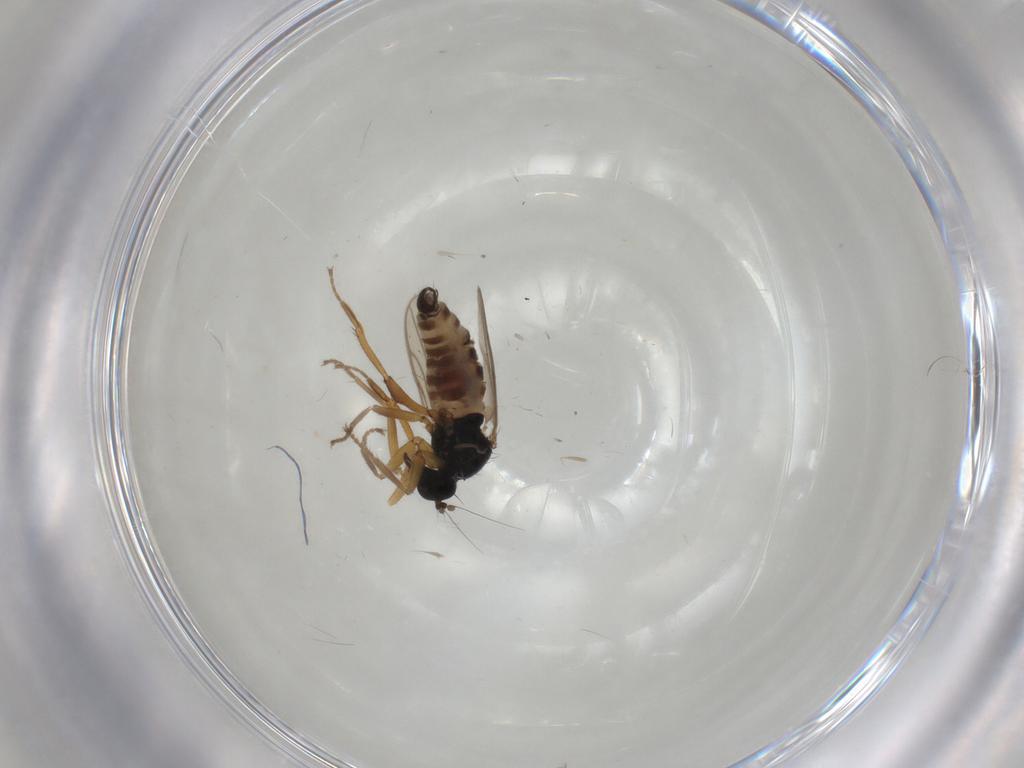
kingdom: Animalia
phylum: Arthropoda
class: Insecta
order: Diptera
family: Hybotidae
